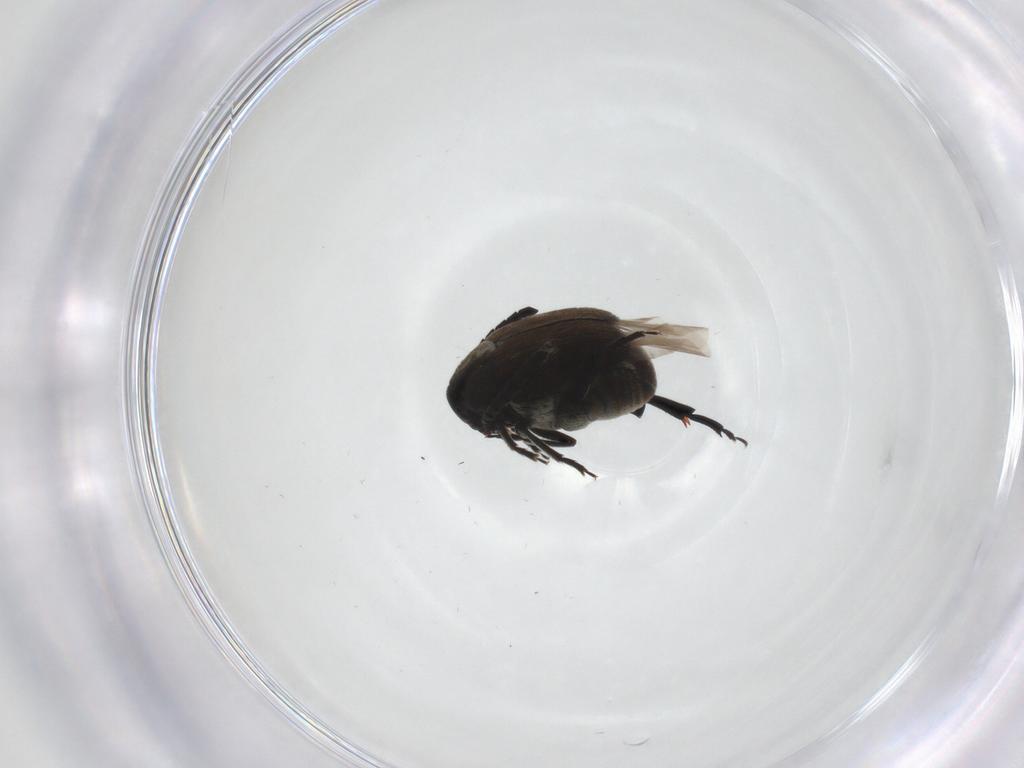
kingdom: Animalia
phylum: Arthropoda
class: Insecta
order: Coleoptera
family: Chrysomelidae
